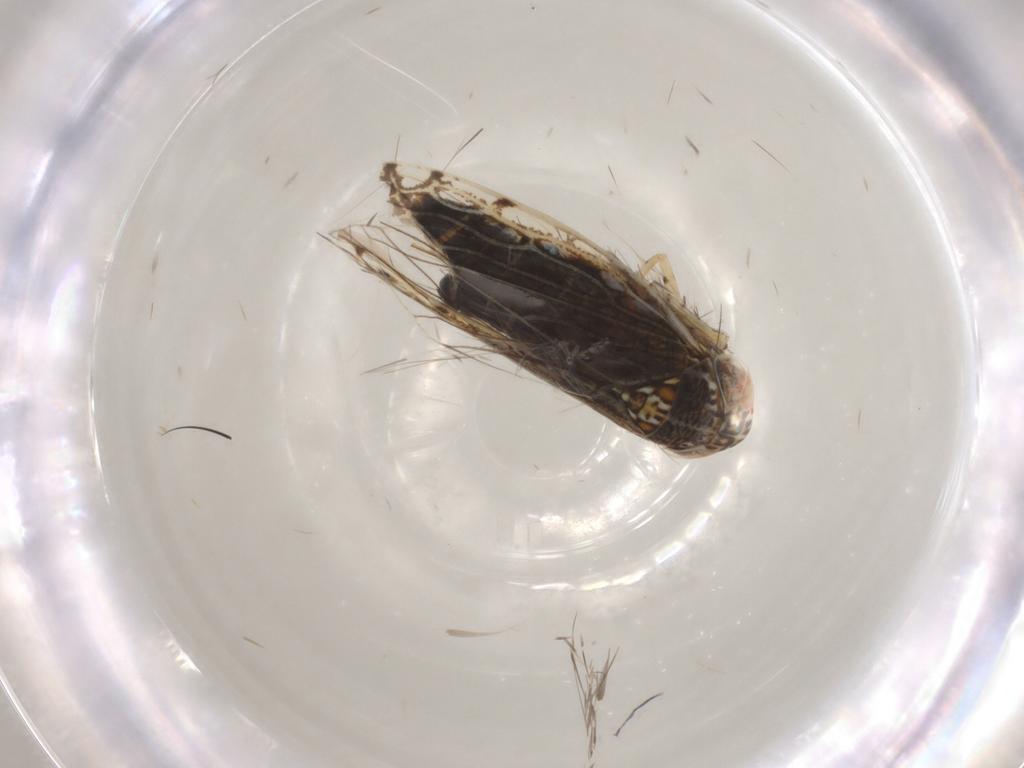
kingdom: Animalia
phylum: Arthropoda
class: Insecta
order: Hemiptera
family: Cicadellidae
